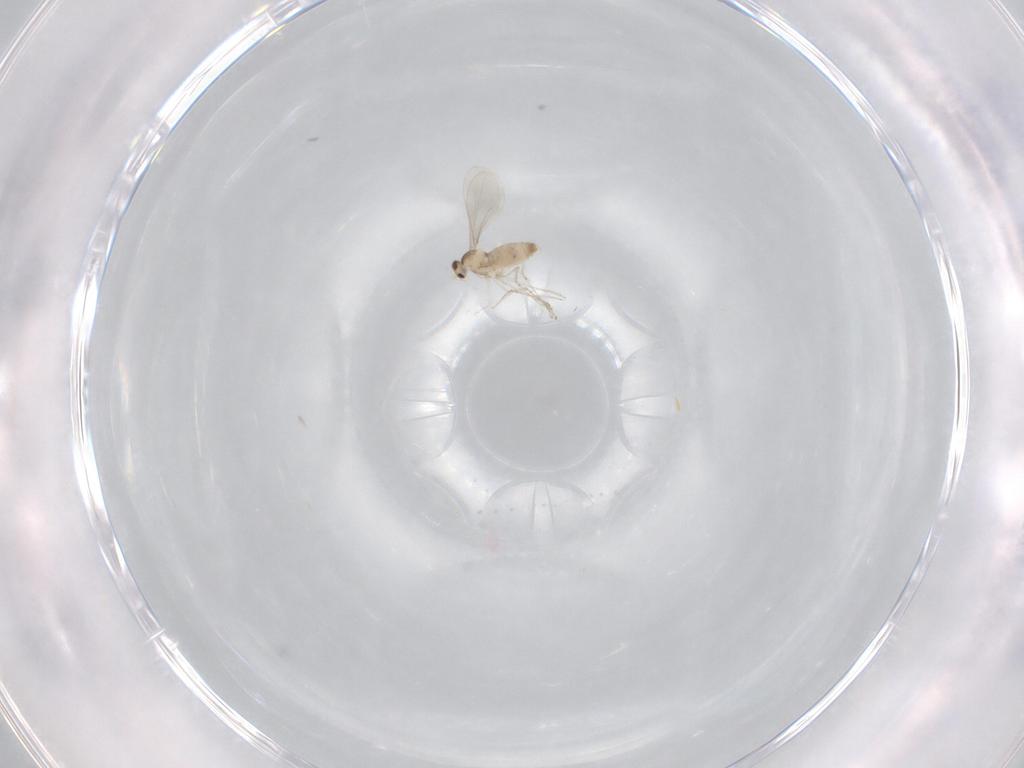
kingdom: Animalia
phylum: Arthropoda
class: Insecta
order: Diptera
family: Cecidomyiidae
